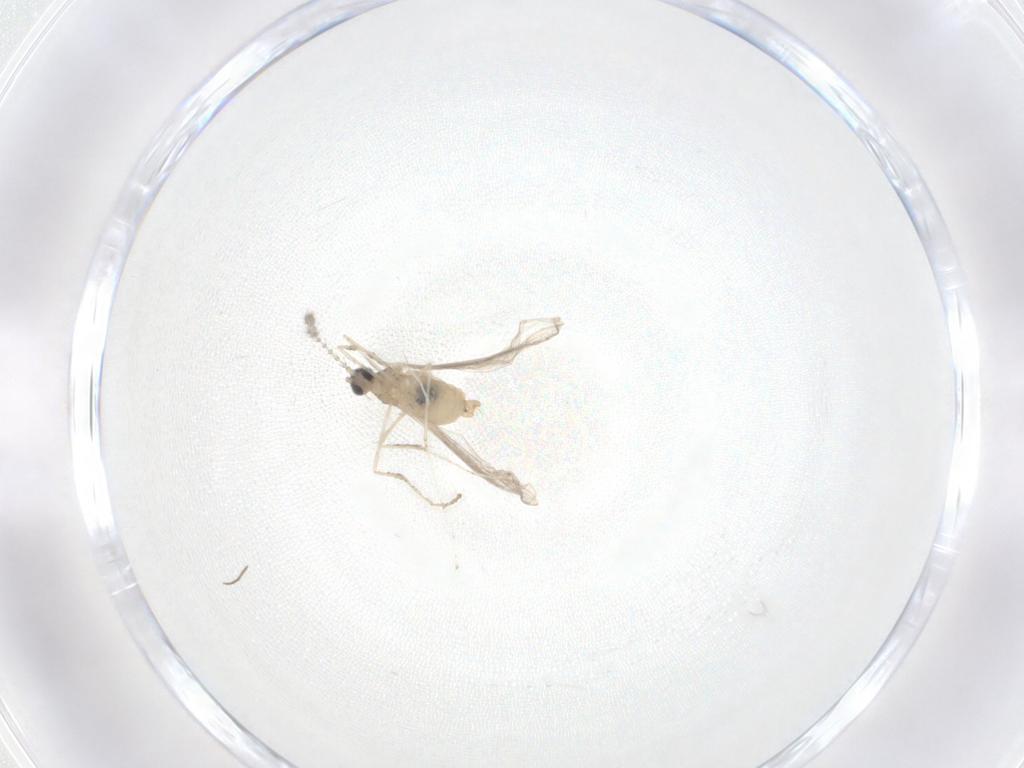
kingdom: Animalia
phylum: Arthropoda
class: Insecta
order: Diptera
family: Cecidomyiidae
